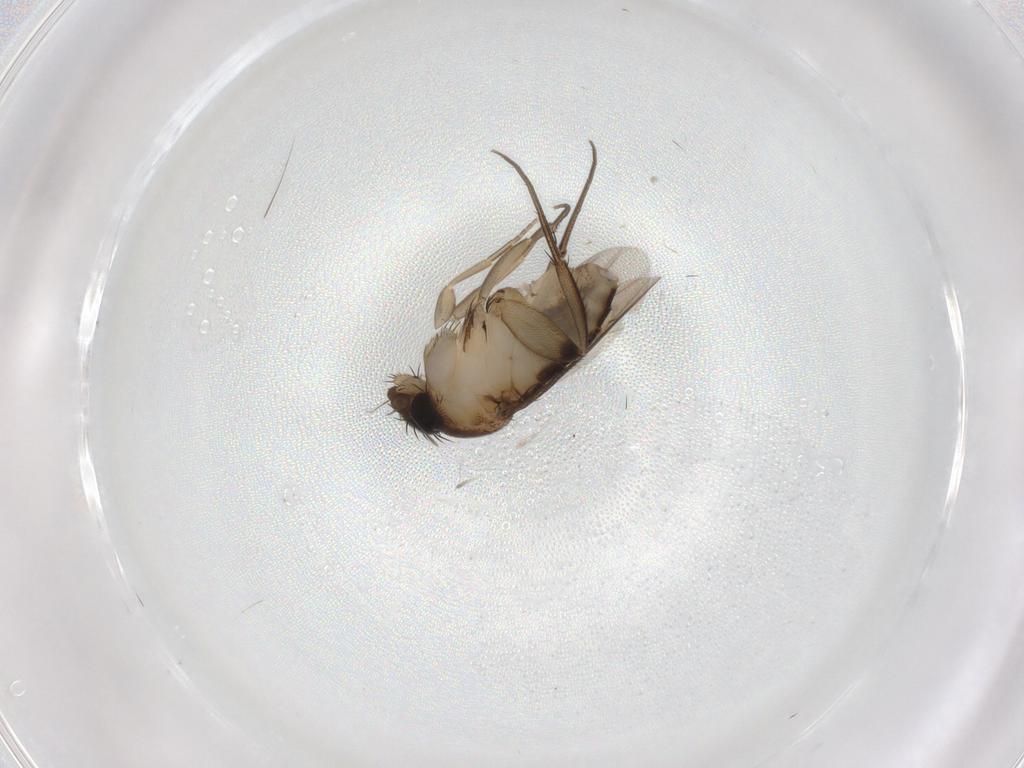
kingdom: Animalia
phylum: Arthropoda
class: Insecta
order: Diptera
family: Phoridae
